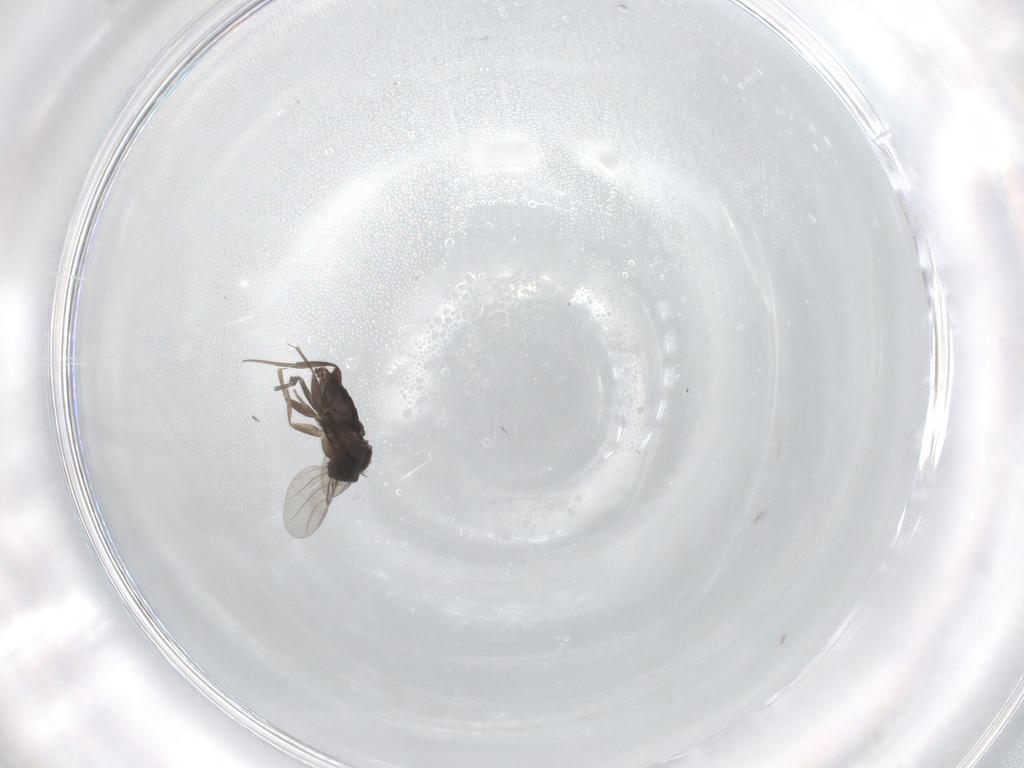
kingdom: Animalia
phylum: Arthropoda
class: Insecta
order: Diptera
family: Phoridae
